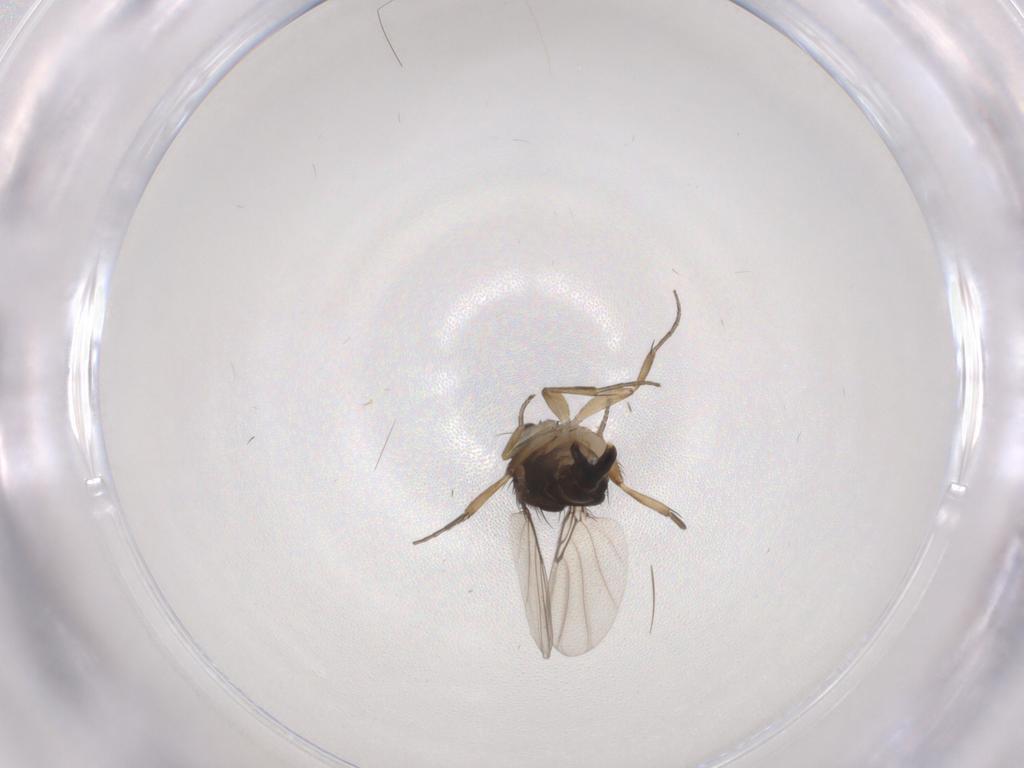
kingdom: Animalia
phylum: Arthropoda
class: Insecta
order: Diptera
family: Phoridae
